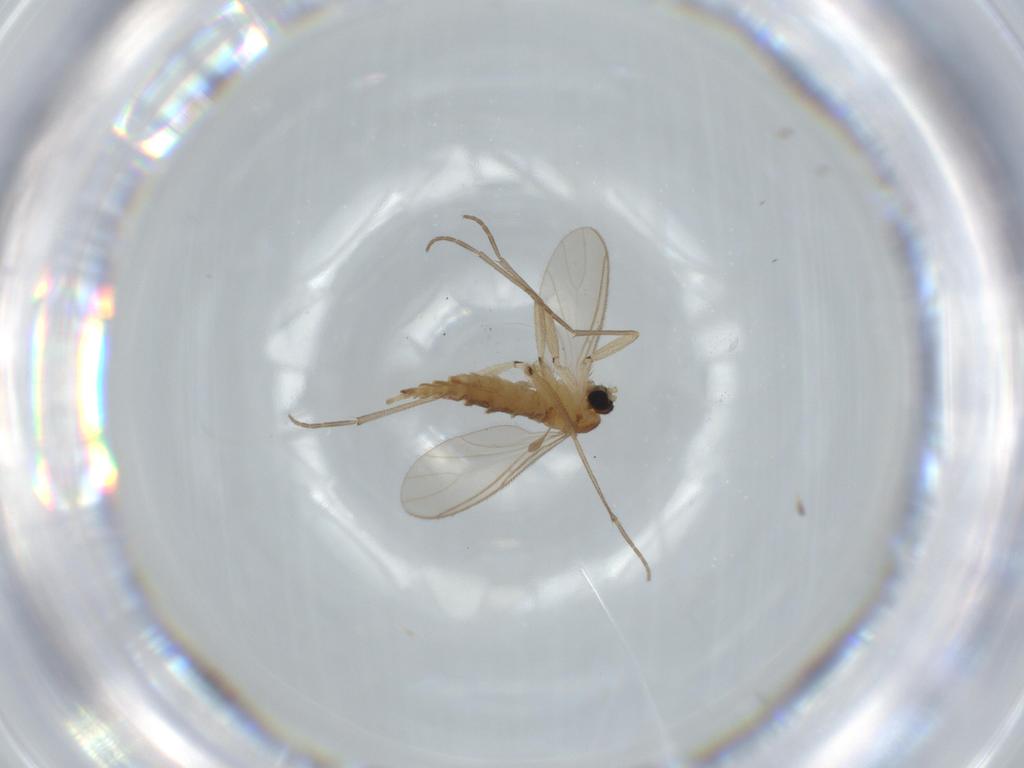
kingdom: Animalia
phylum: Arthropoda
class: Insecta
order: Diptera
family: Sciaridae
